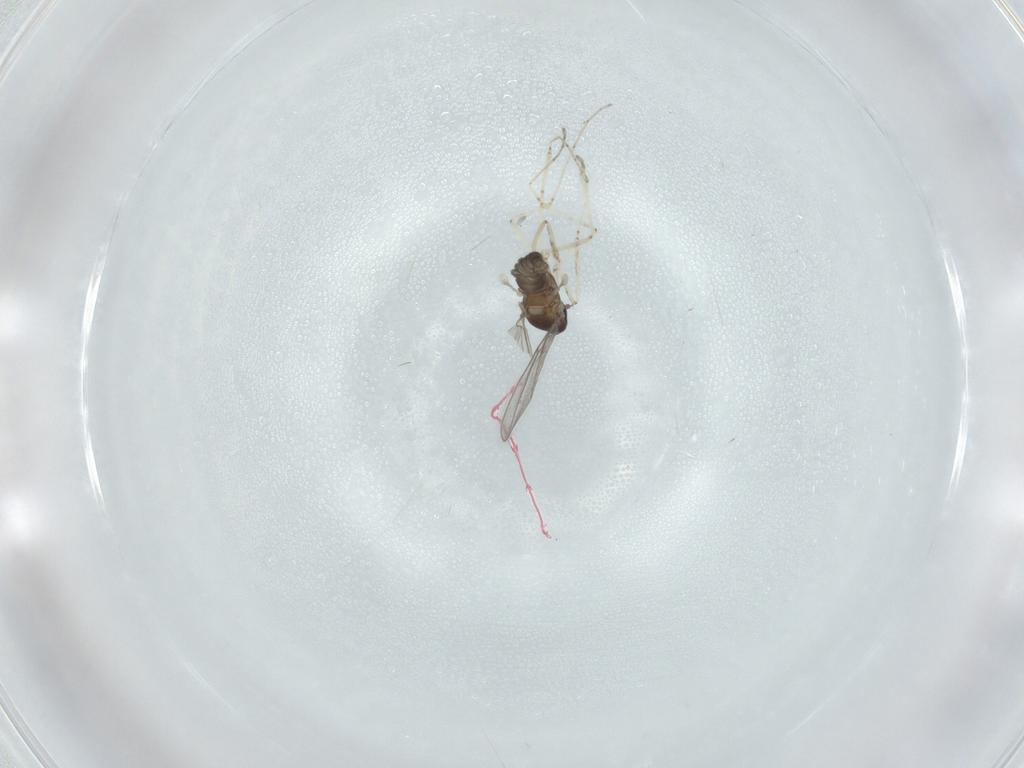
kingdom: Animalia
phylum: Arthropoda
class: Insecta
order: Diptera
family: Cecidomyiidae
